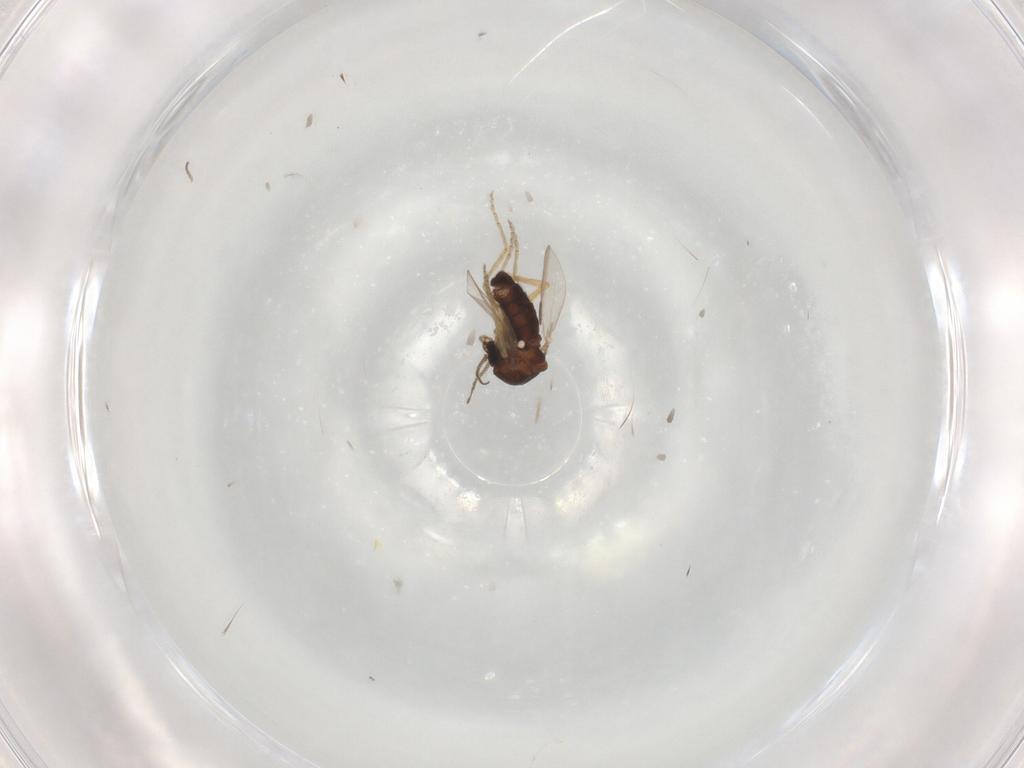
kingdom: Animalia
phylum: Arthropoda
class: Insecta
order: Diptera
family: Ceratopogonidae
